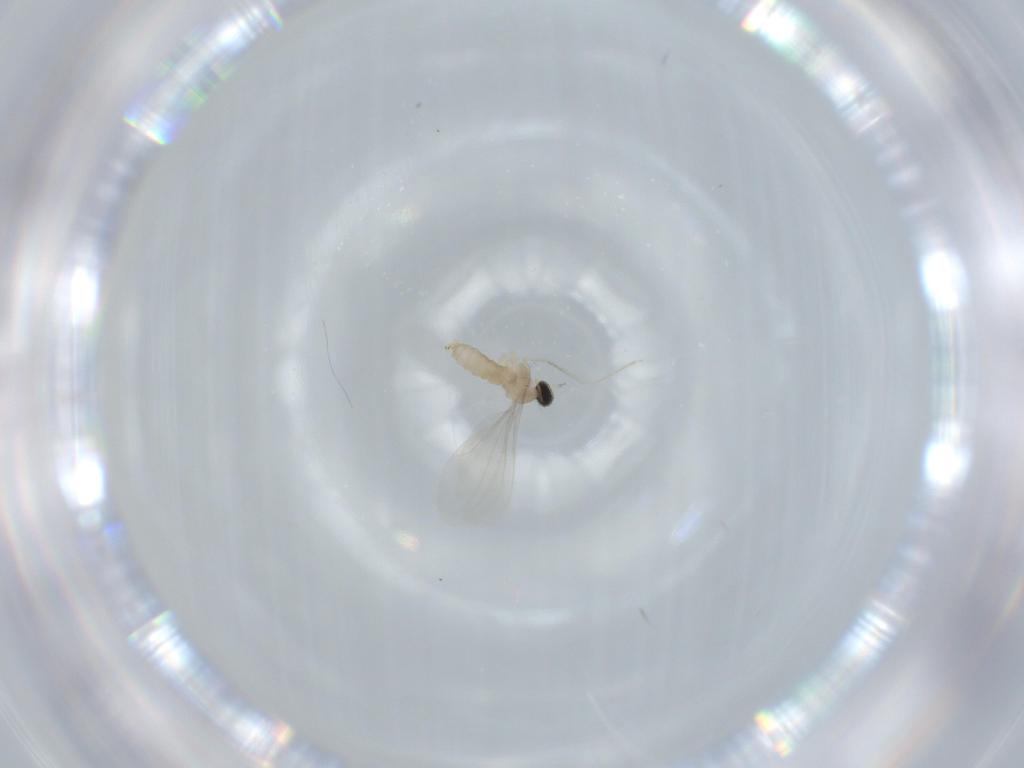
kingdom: Animalia
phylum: Arthropoda
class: Insecta
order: Diptera
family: Cecidomyiidae
